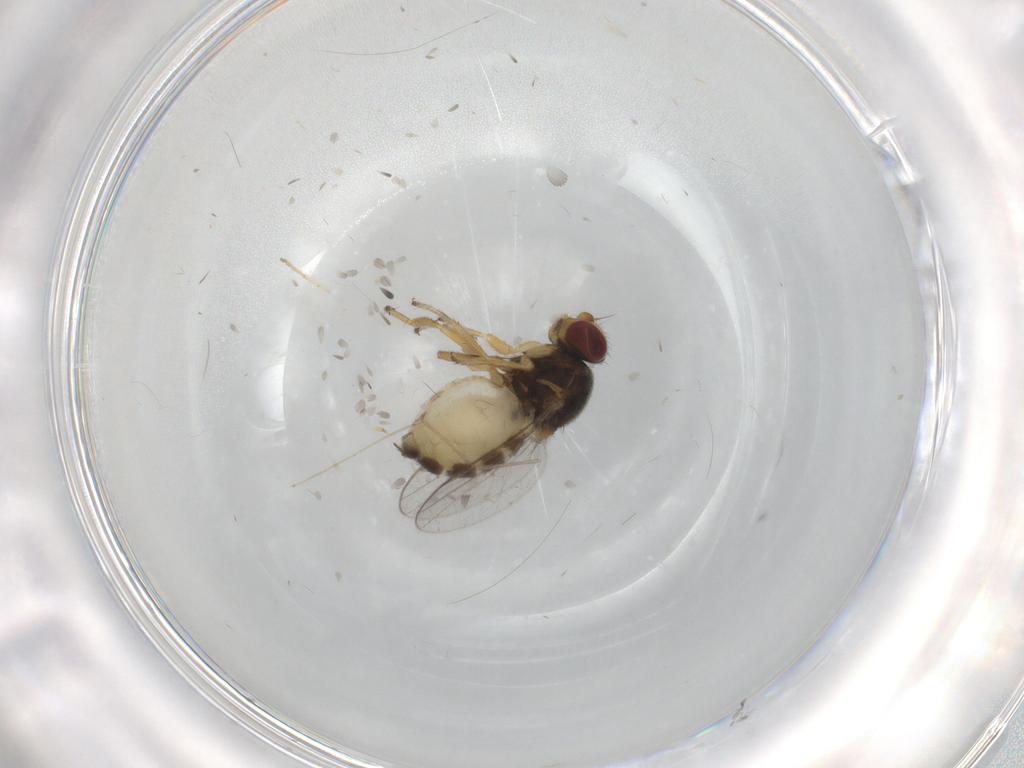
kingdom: Animalia
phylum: Arthropoda
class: Insecta
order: Diptera
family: Chloropidae
